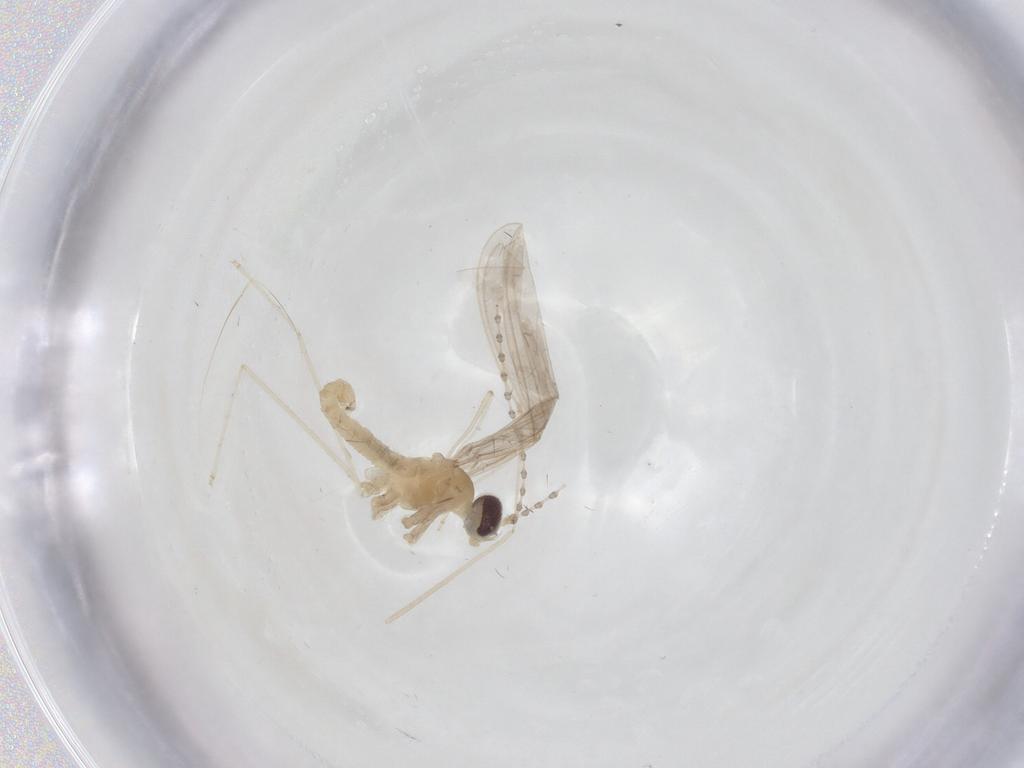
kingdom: Animalia
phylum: Arthropoda
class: Insecta
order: Diptera
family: Cecidomyiidae
